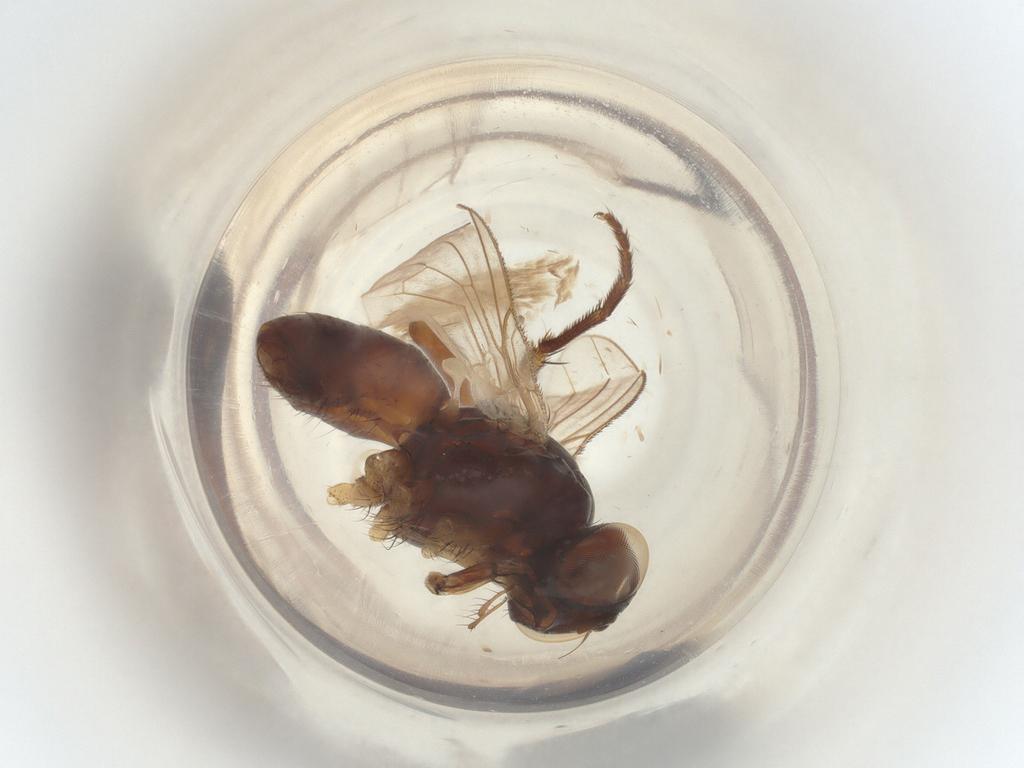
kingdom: Animalia
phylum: Arthropoda
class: Insecta
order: Diptera
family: Muscidae
